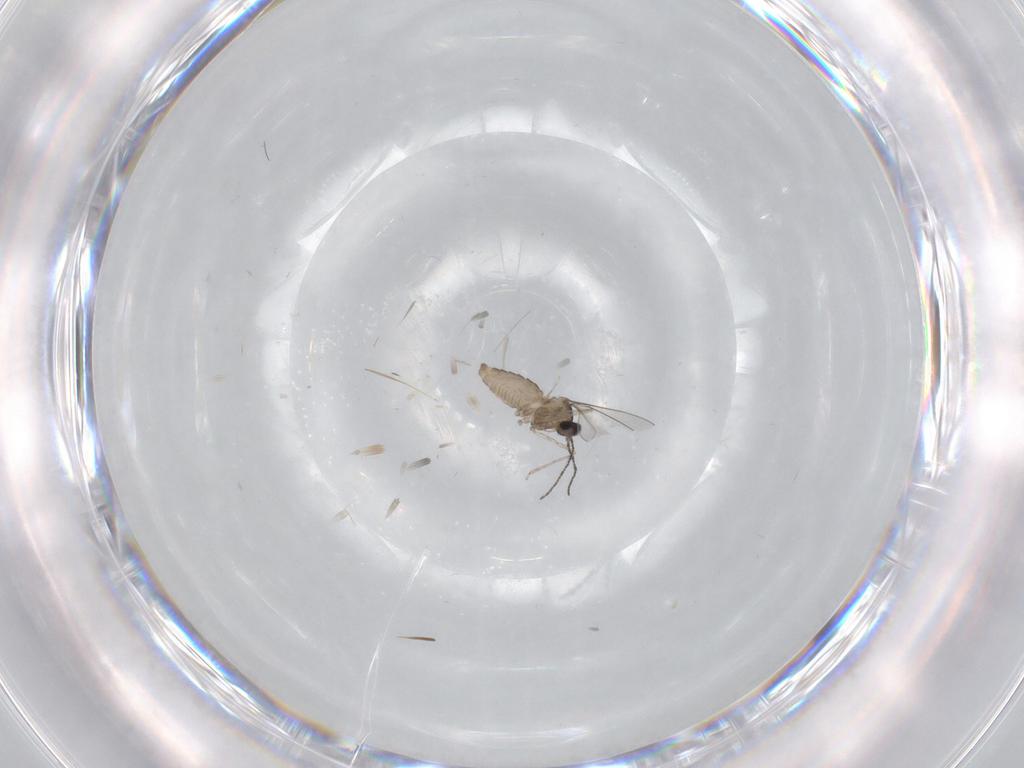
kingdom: Animalia
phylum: Arthropoda
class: Insecta
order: Diptera
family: Cecidomyiidae
